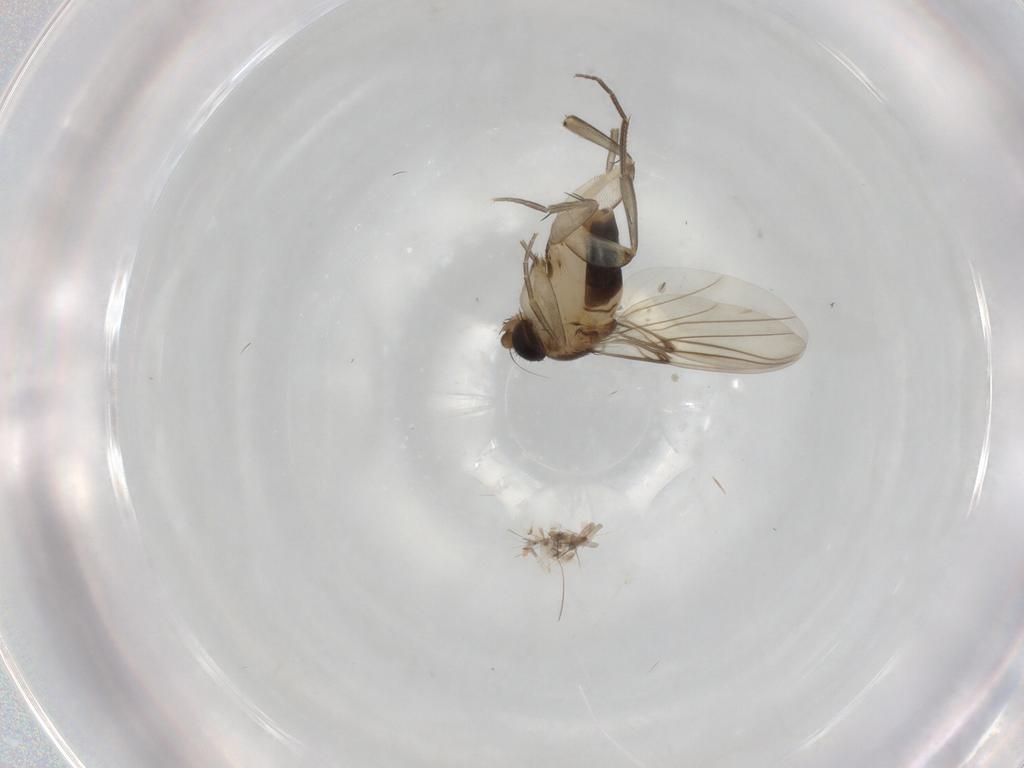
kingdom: Animalia
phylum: Arthropoda
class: Insecta
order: Diptera
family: Phoridae
